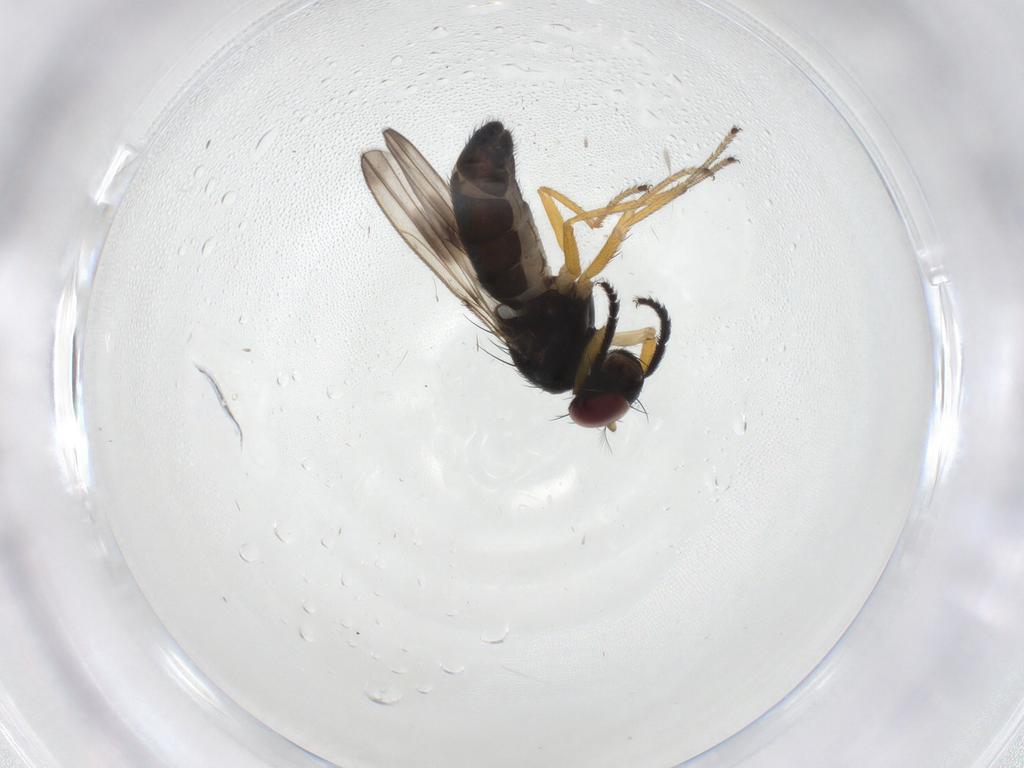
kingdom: Animalia
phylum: Arthropoda
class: Insecta
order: Diptera
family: Ephydridae
